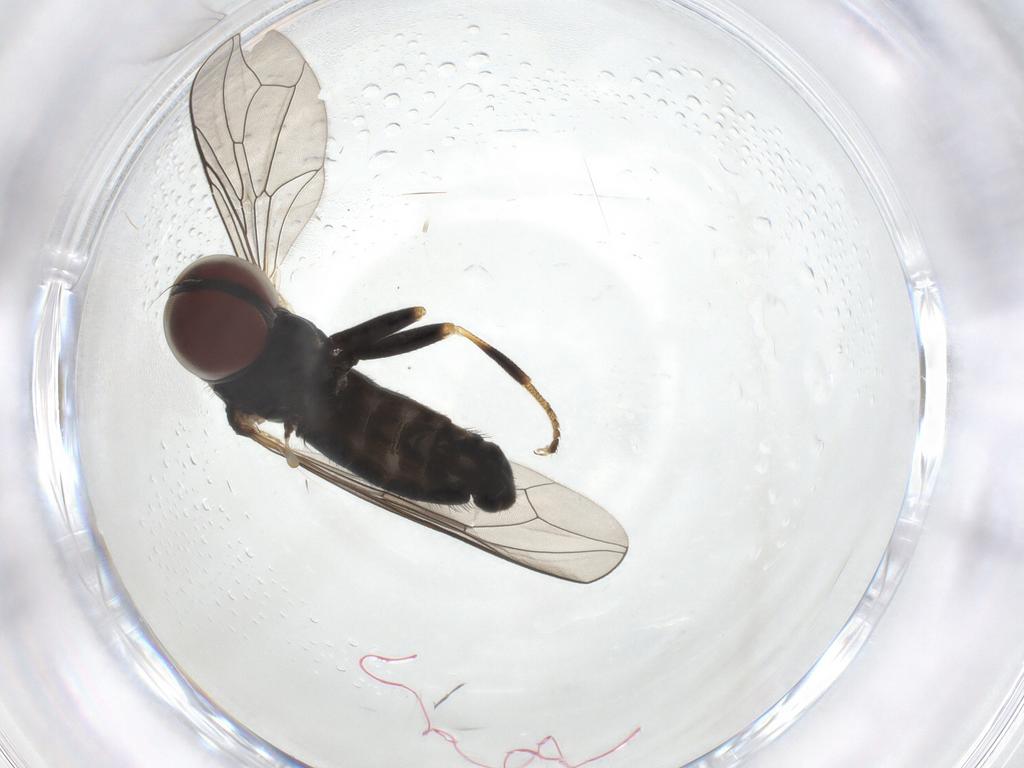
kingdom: Animalia
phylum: Arthropoda
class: Insecta
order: Diptera
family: Pipunculidae
